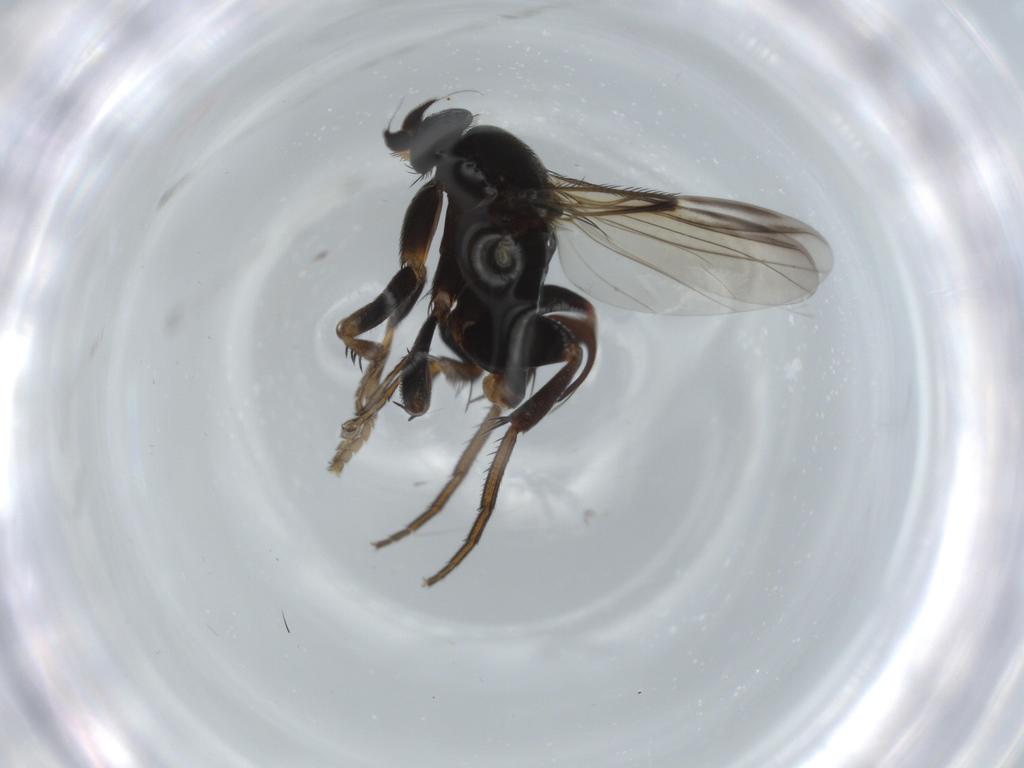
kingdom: Animalia
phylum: Arthropoda
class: Insecta
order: Diptera
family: Phoridae
